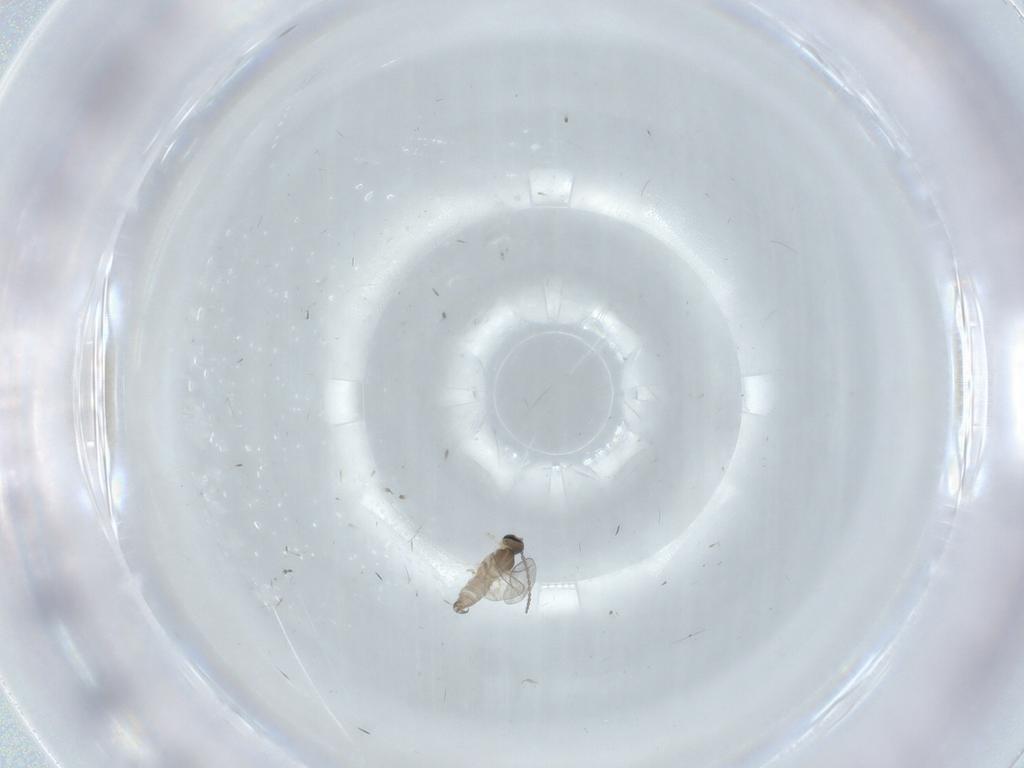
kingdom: Animalia
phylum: Arthropoda
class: Insecta
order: Diptera
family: Cecidomyiidae
